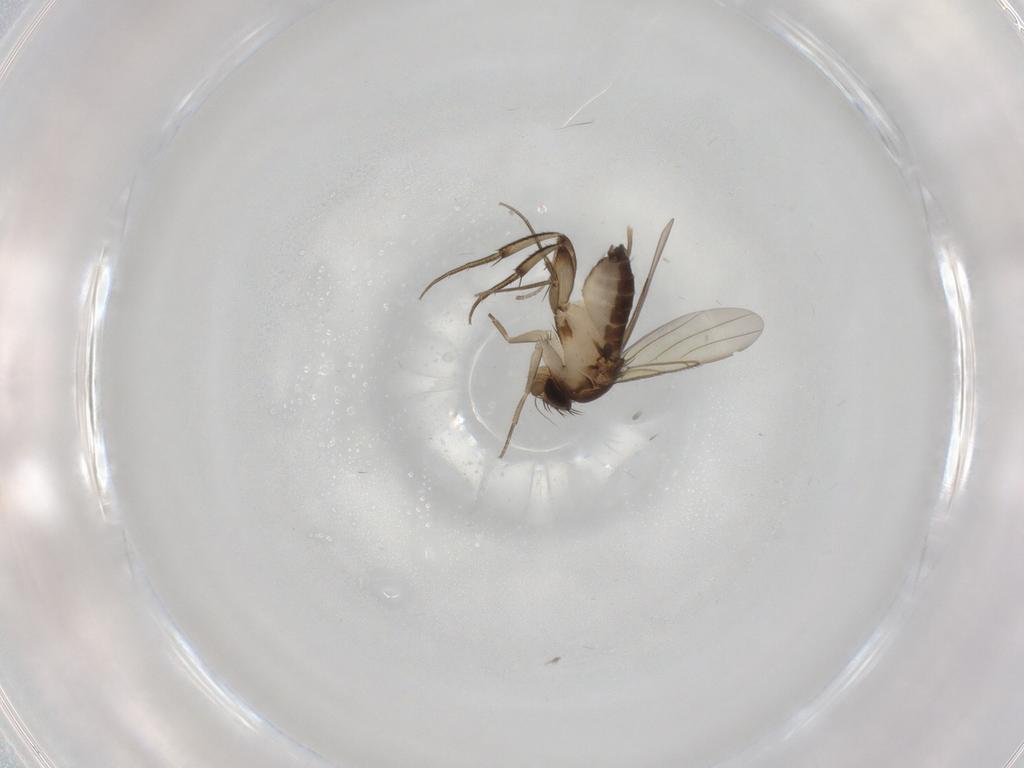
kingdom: Animalia
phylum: Arthropoda
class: Insecta
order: Diptera
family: Phoridae
